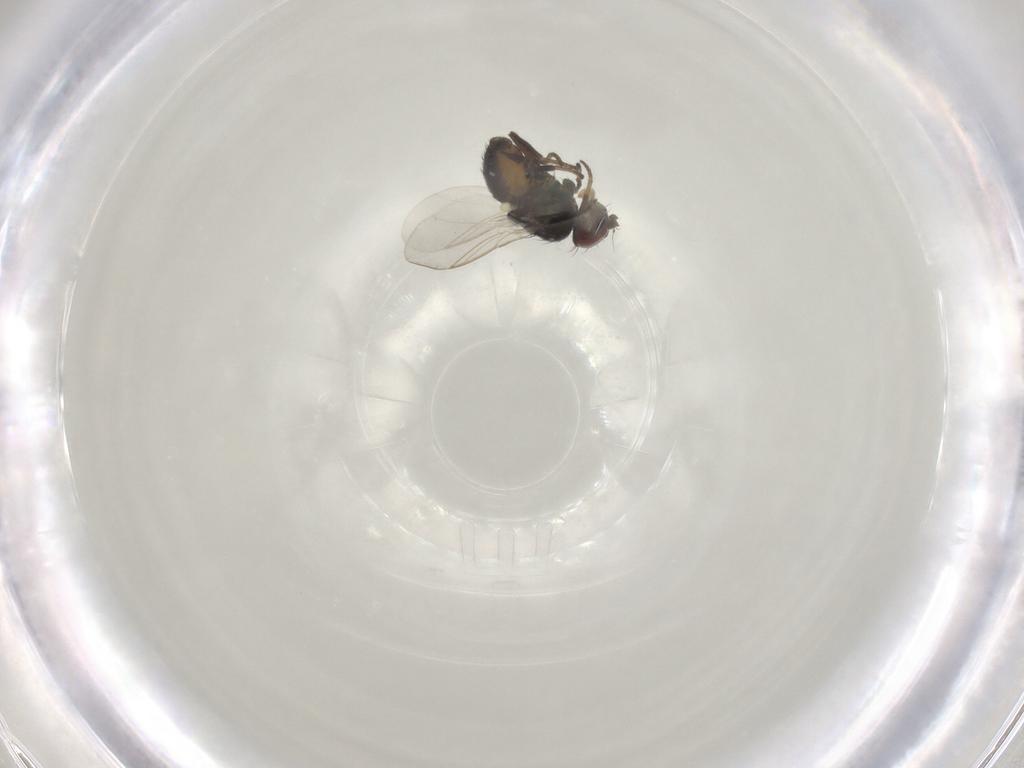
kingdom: Animalia
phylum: Arthropoda
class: Insecta
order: Diptera
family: Agromyzidae
